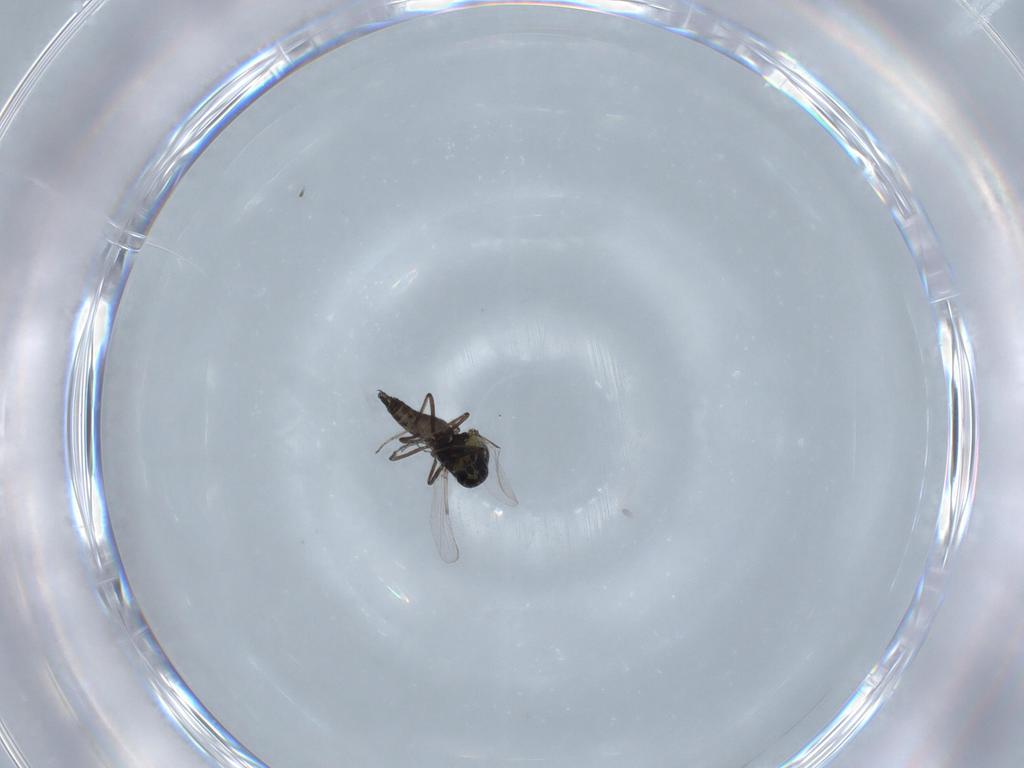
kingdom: Animalia
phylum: Arthropoda
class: Insecta
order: Diptera
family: Ceratopogonidae
